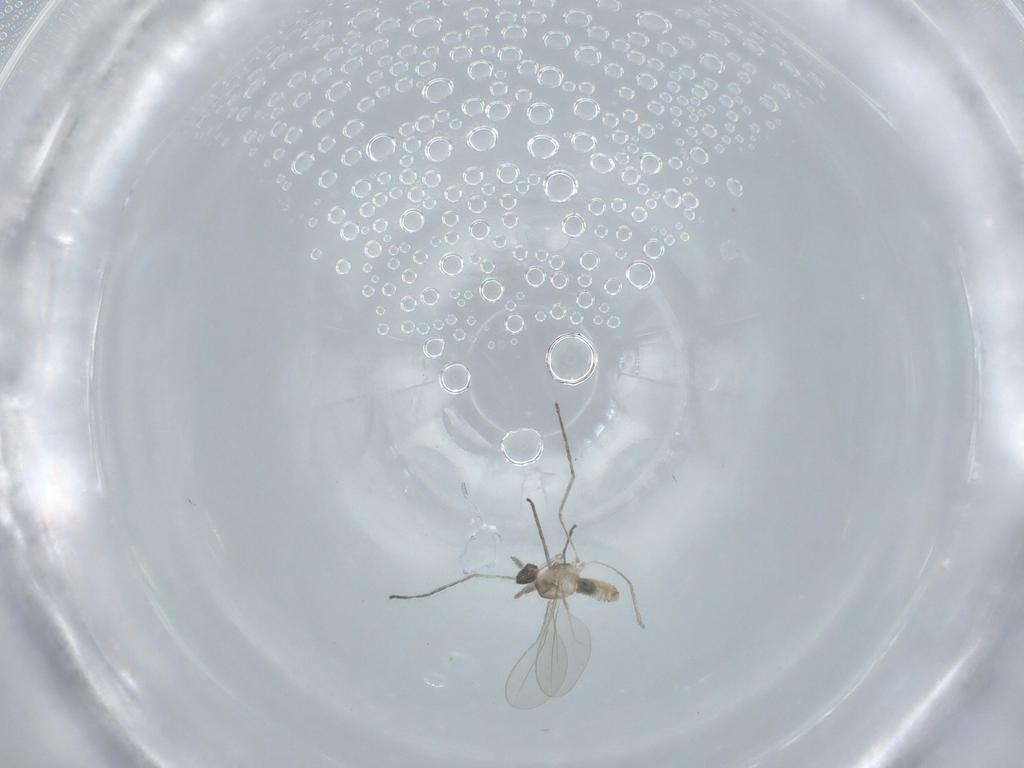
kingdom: Animalia
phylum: Arthropoda
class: Insecta
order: Diptera
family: Cecidomyiidae
